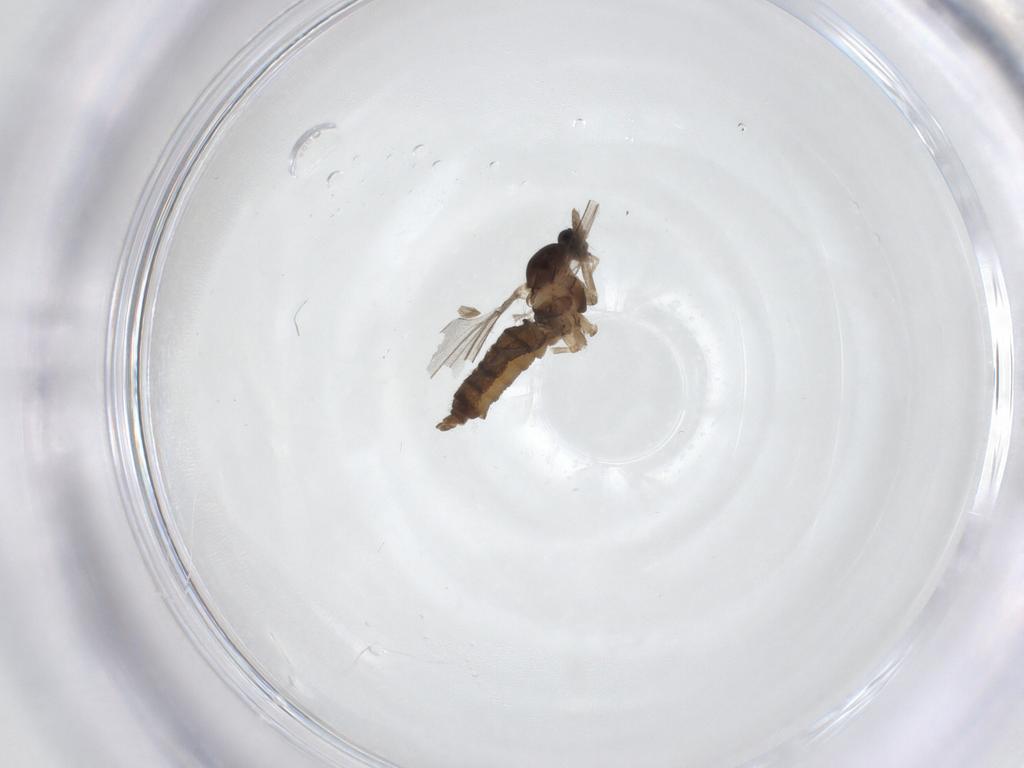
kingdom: Animalia
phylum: Arthropoda
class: Insecta
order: Diptera
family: Cecidomyiidae
